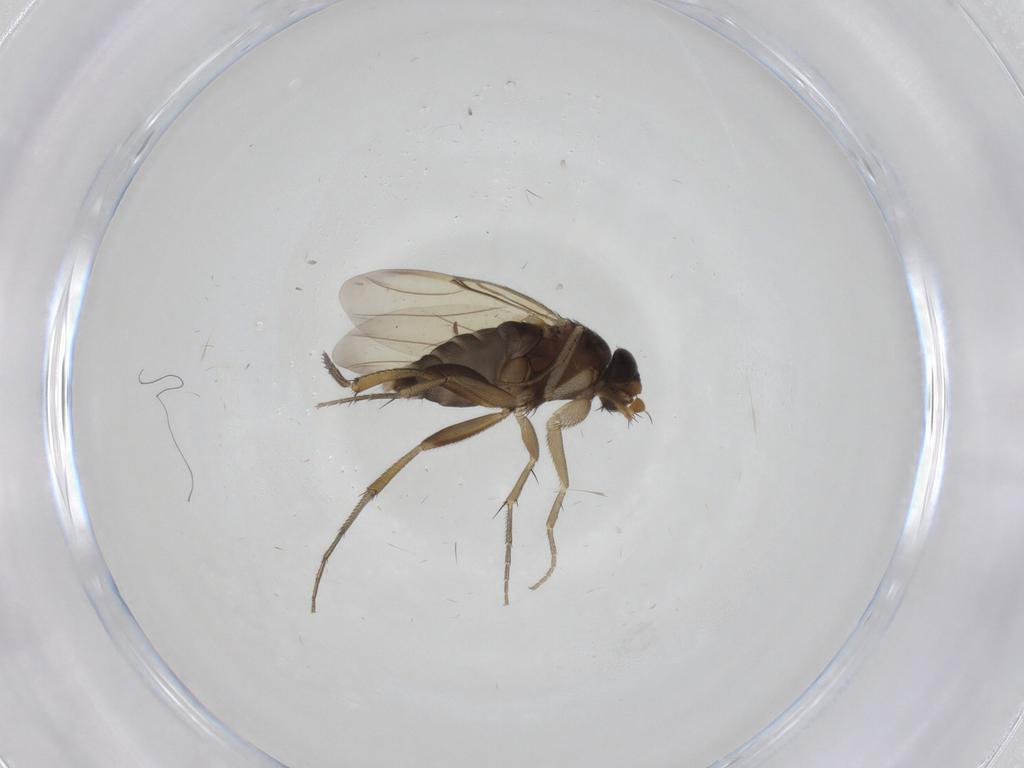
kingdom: Animalia
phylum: Arthropoda
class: Insecta
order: Diptera
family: Phoridae
